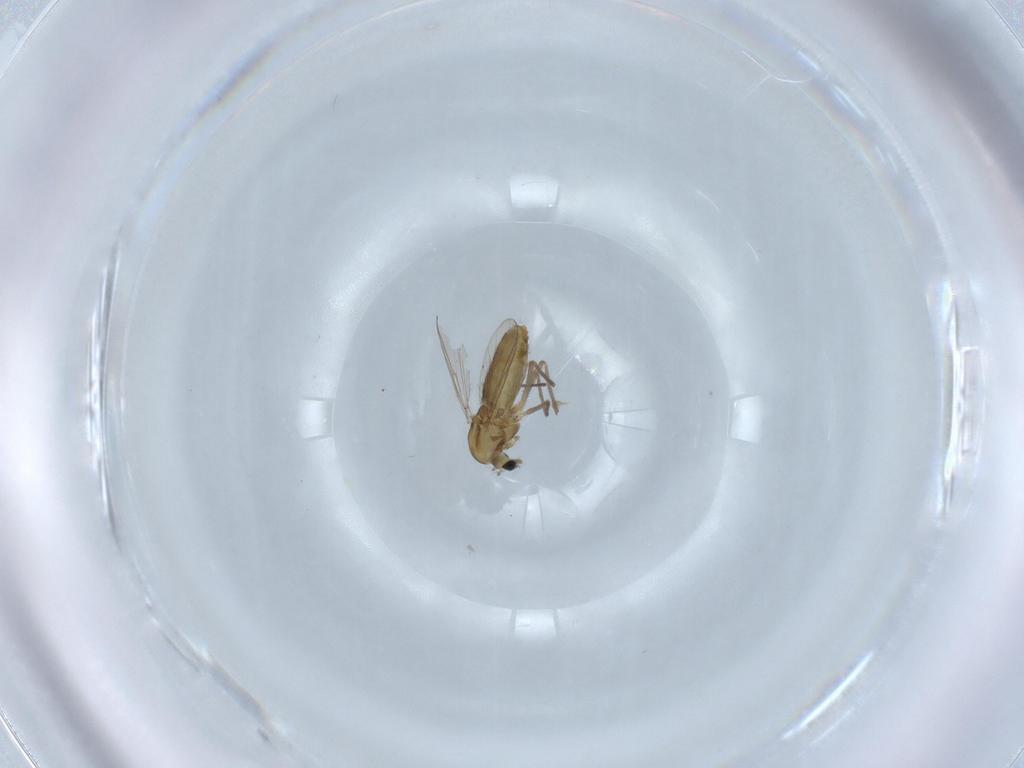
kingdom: Animalia
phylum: Arthropoda
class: Insecta
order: Diptera
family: Chironomidae
